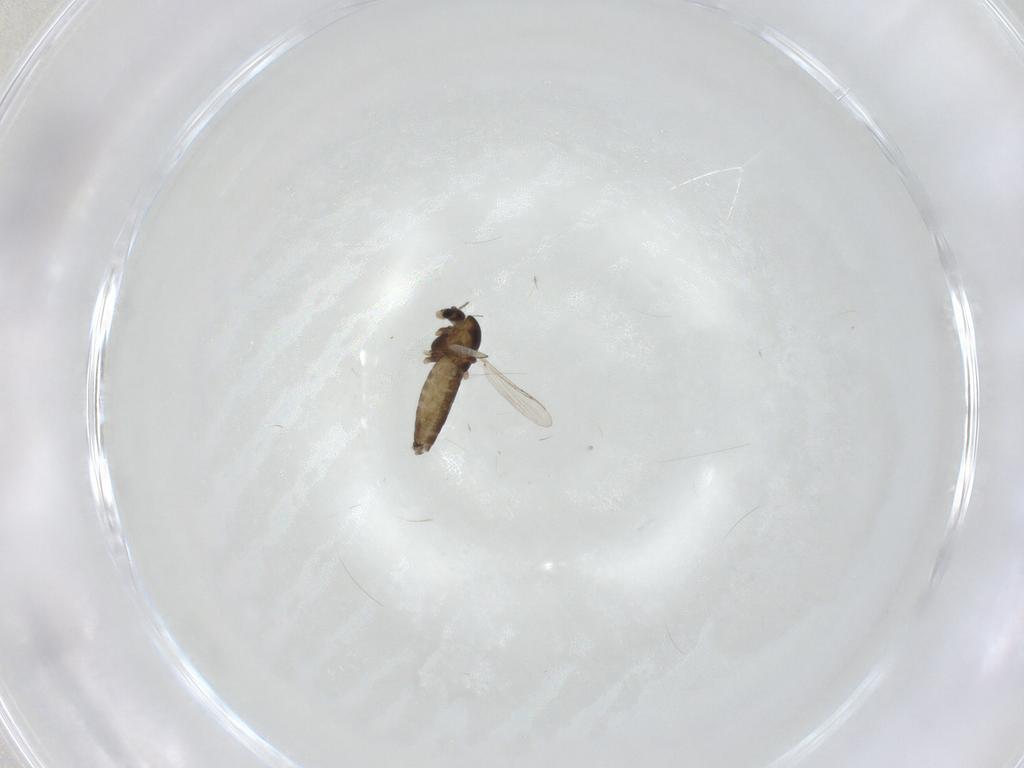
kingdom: Animalia
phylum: Arthropoda
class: Insecta
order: Diptera
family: Chironomidae
